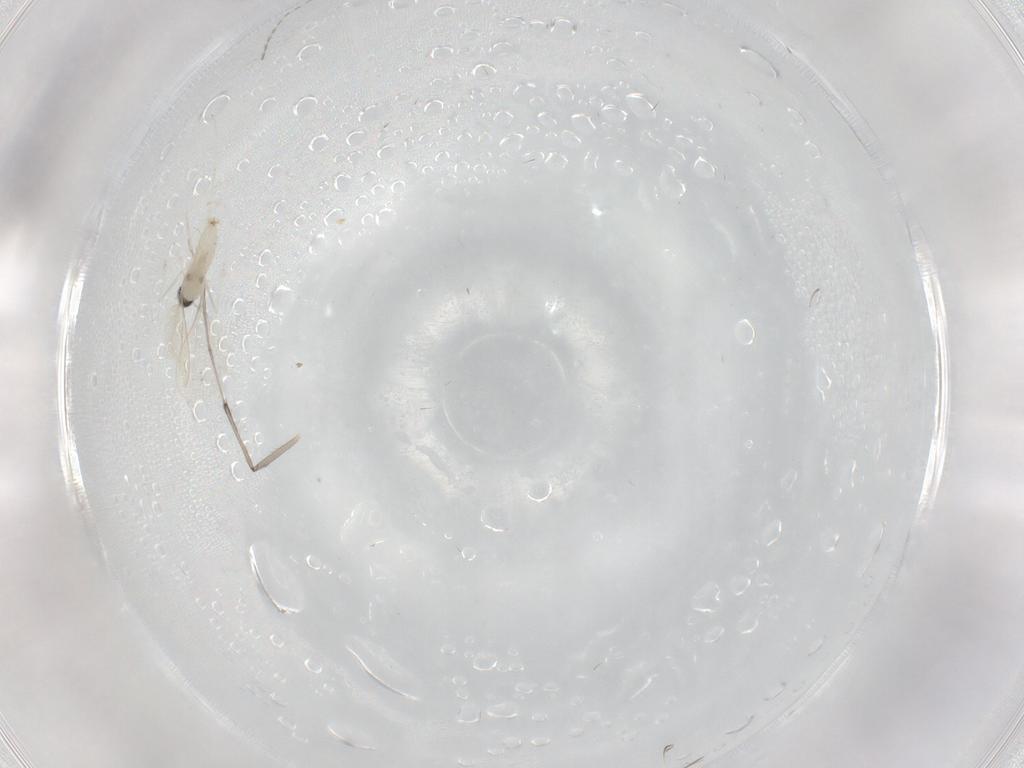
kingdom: Animalia
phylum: Arthropoda
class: Insecta
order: Diptera
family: Cecidomyiidae
